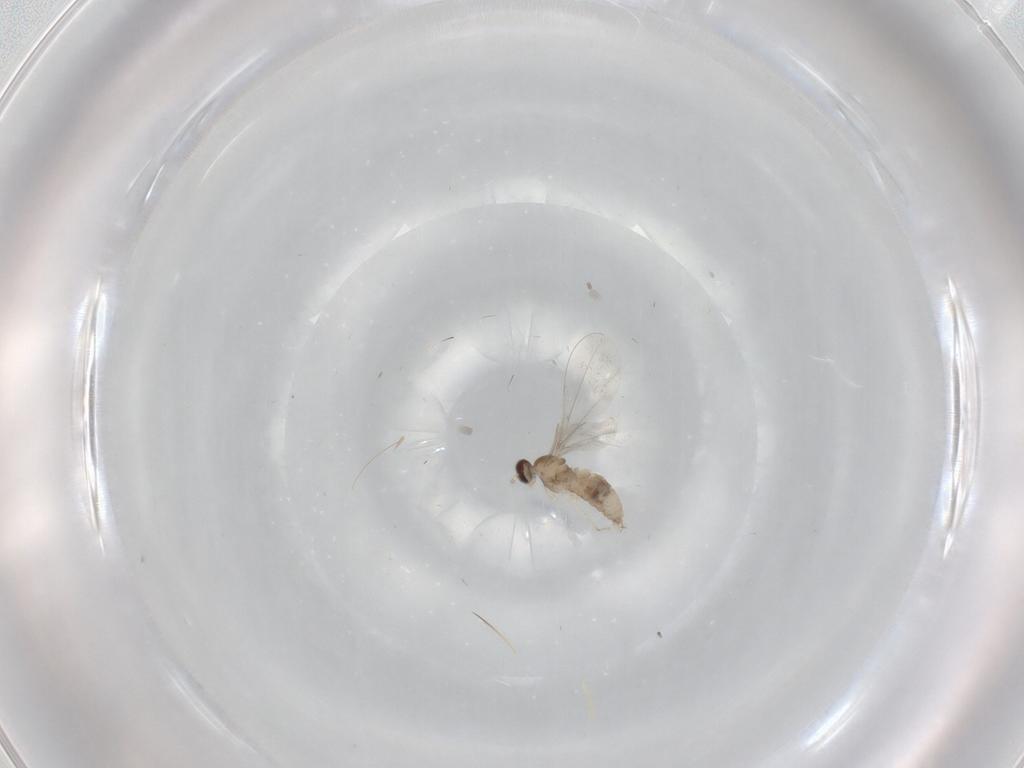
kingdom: Animalia
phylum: Arthropoda
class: Insecta
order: Diptera
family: Cecidomyiidae
